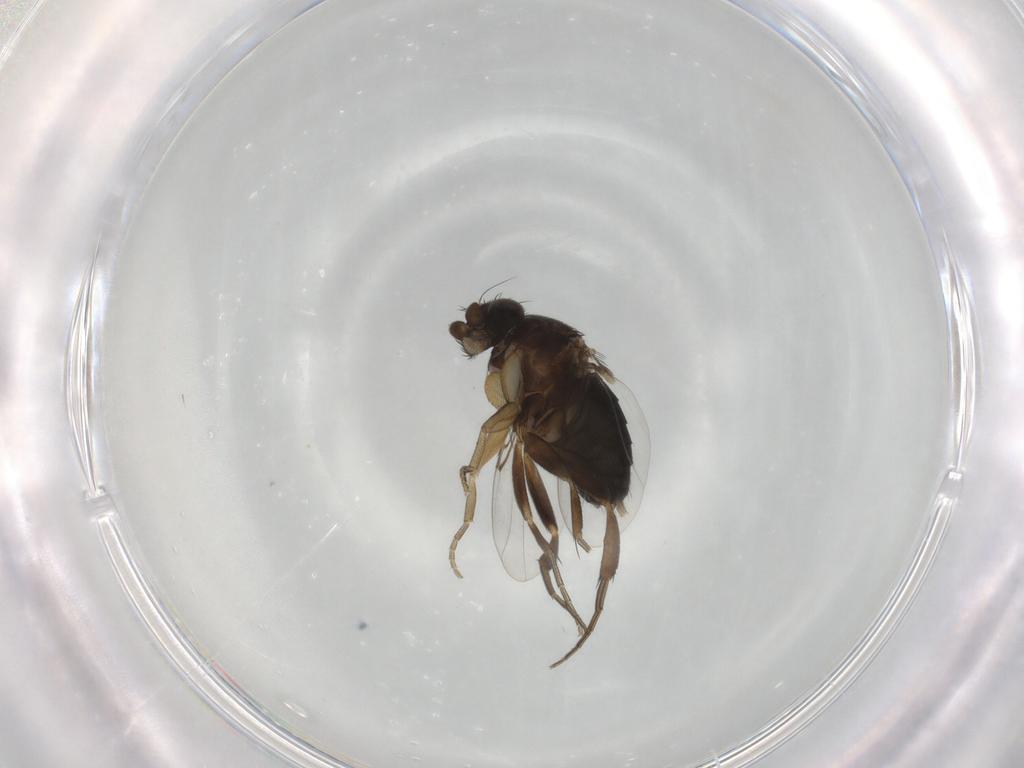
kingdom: Animalia
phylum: Arthropoda
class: Insecta
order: Diptera
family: Phoridae
